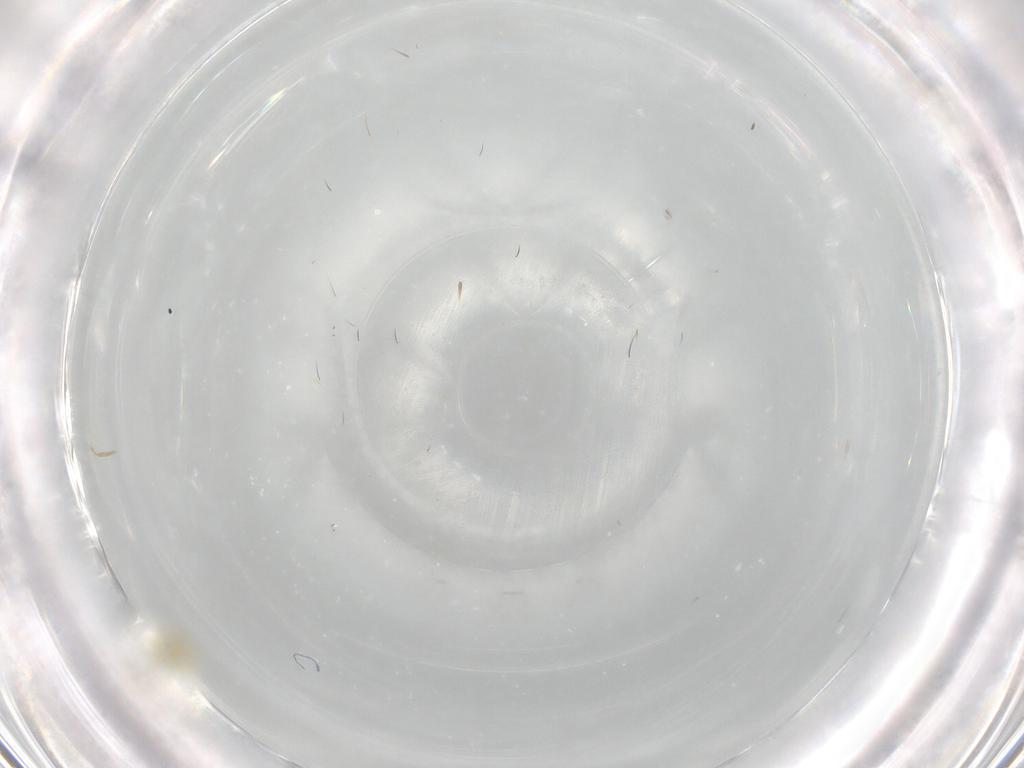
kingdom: Animalia
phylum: Arthropoda
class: Insecta
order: Hemiptera
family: Aleyrodidae
